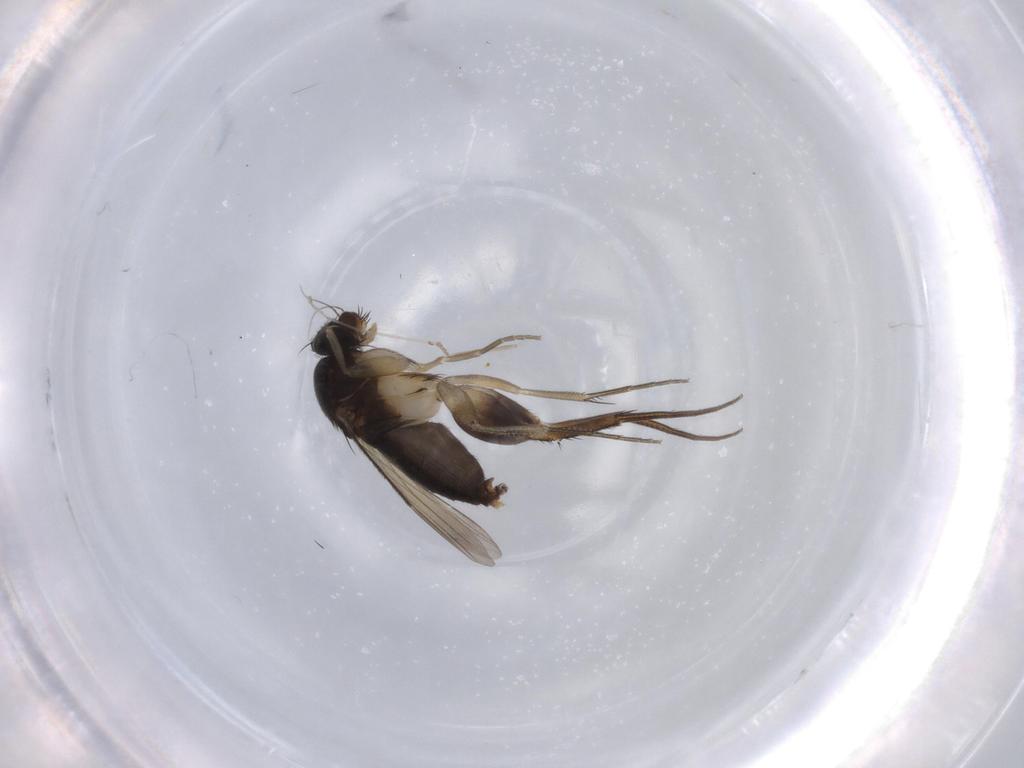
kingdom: Animalia
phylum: Arthropoda
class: Insecta
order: Diptera
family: Phoridae
